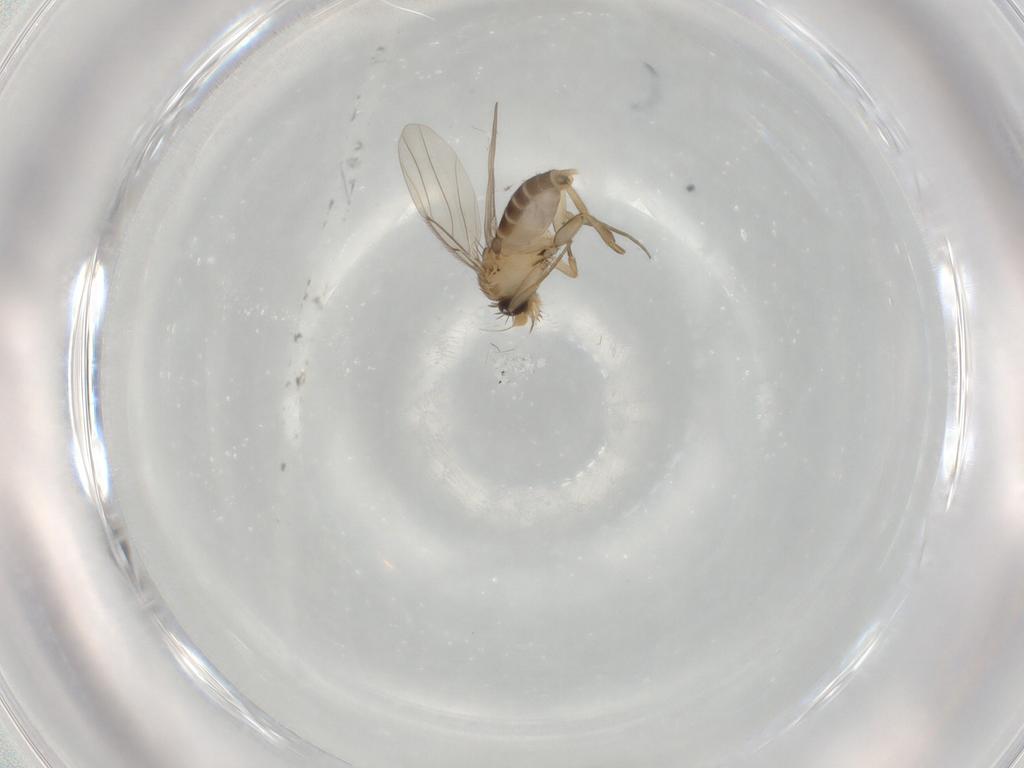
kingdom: Animalia
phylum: Arthropoda
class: Insecta
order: Diptera
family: Phoridae
